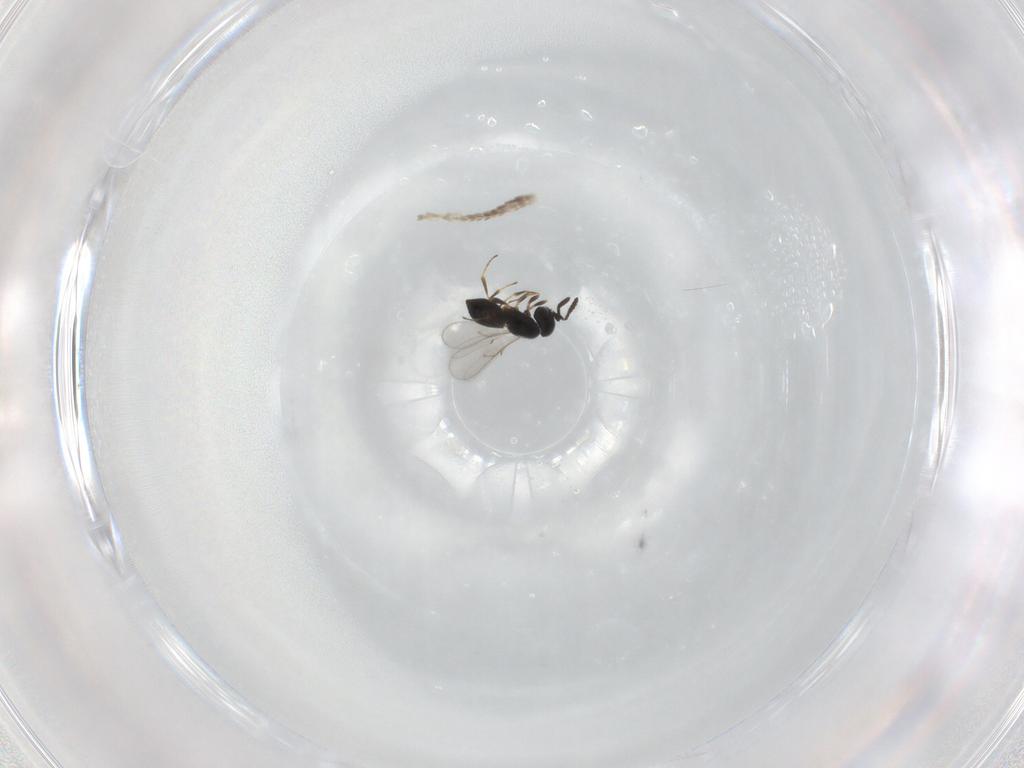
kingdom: Animalia
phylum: Arthropoda
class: Insecta
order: Hymenoptera
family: Scelionidae
